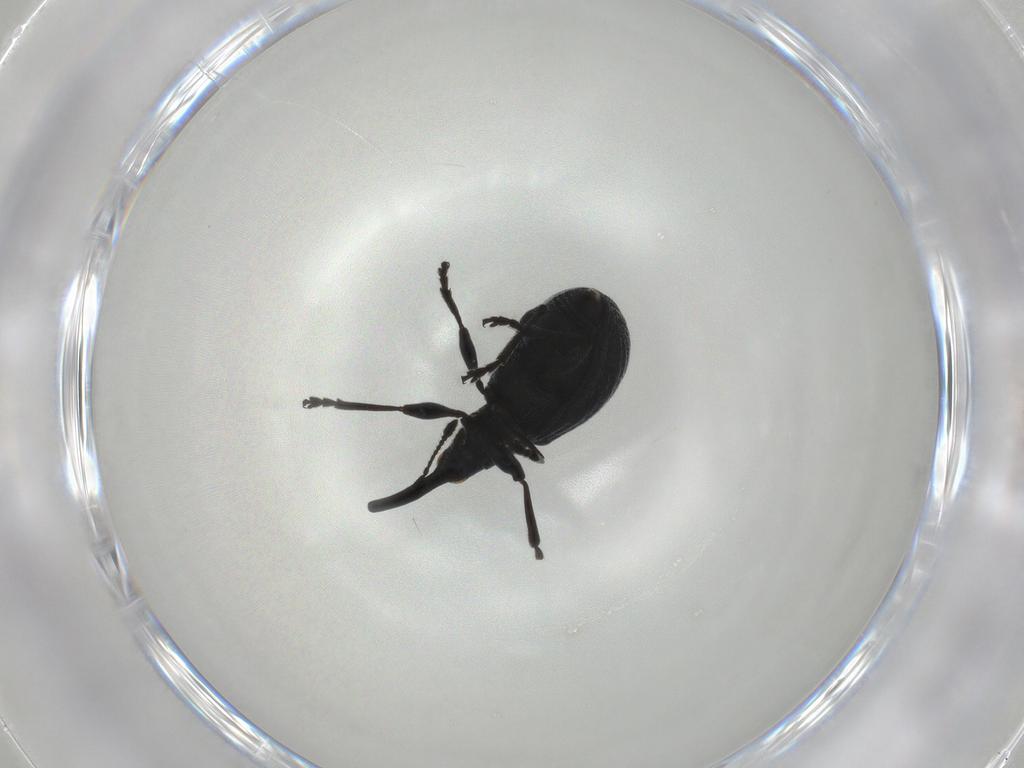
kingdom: Animalia
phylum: Arthropoda
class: Insecta
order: Coleoptera
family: Brentidae
